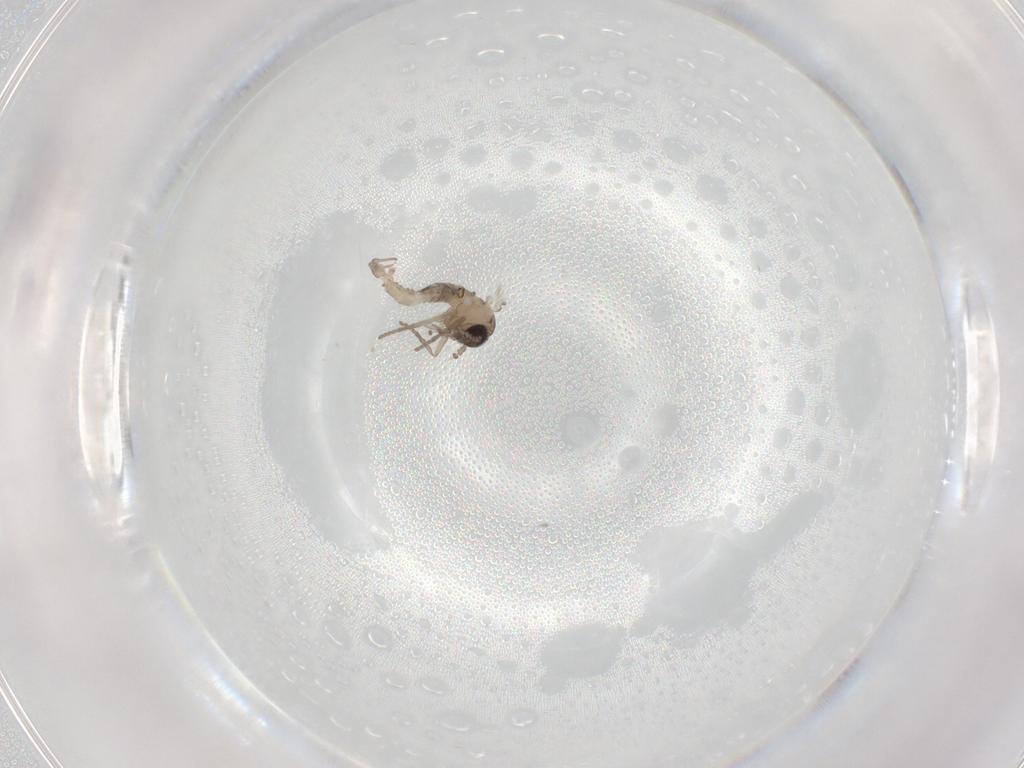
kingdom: Animalia
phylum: Arthropoda
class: Insecta
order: Diptera
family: Psychodidae
